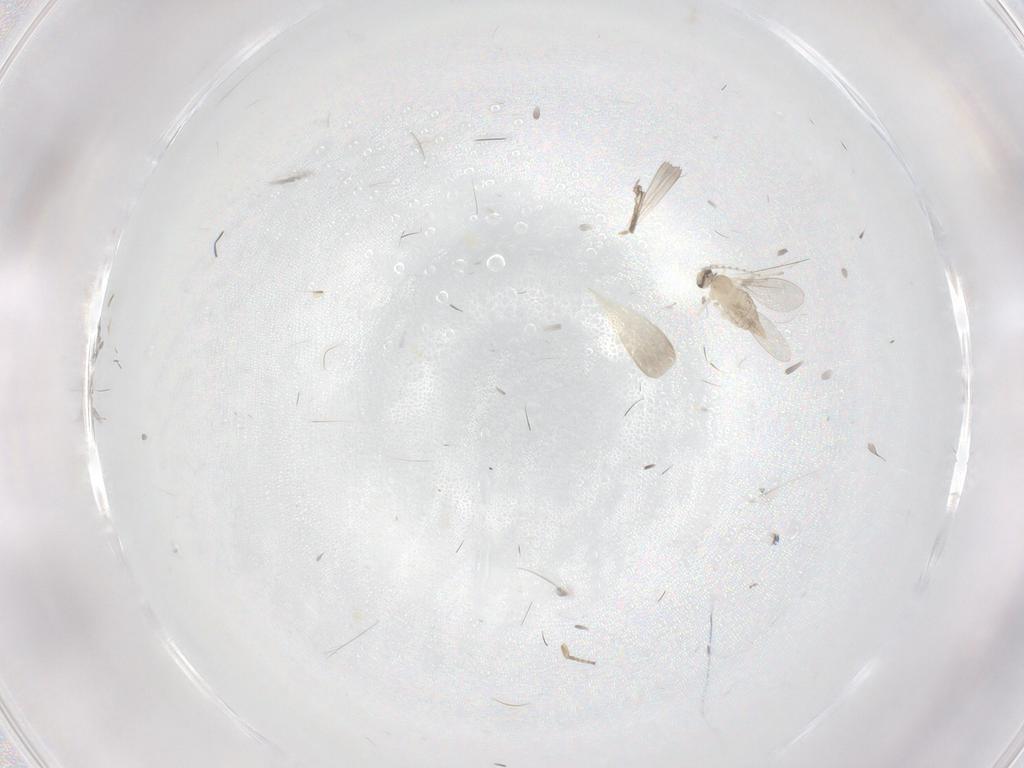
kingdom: Animalia
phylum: Arthropoda
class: Insecta
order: Diptera
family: Cecidomyiidae
